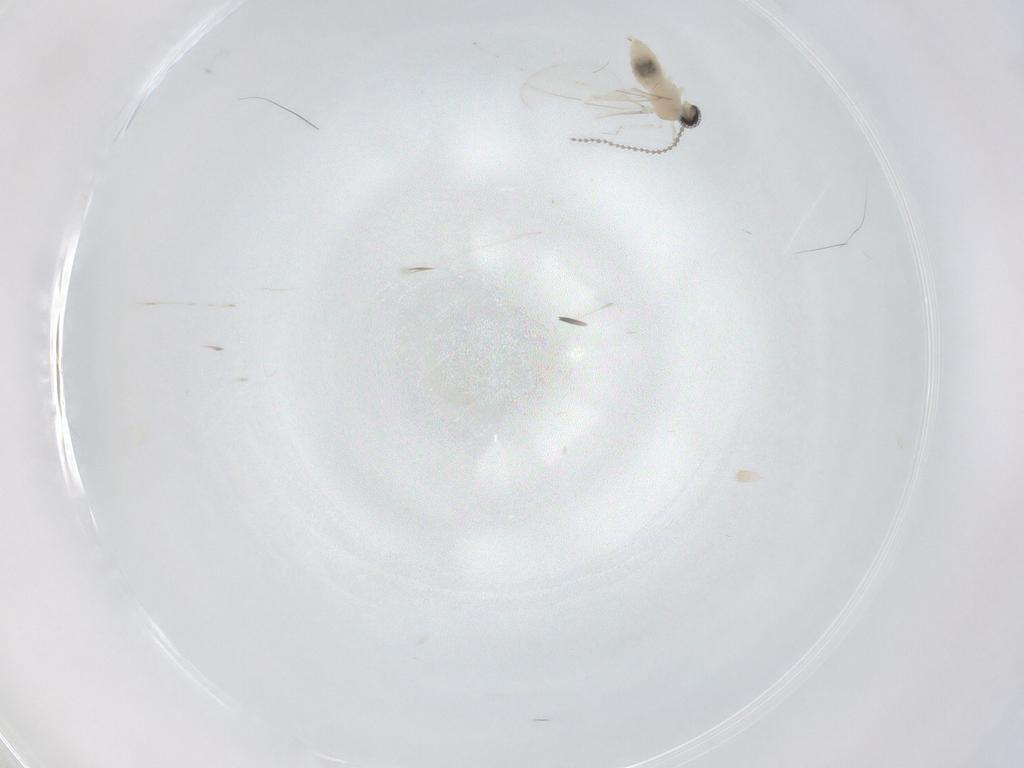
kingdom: Animalia
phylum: Arthropoda
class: Insecta
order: Diptera
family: Cecidomyiidae
